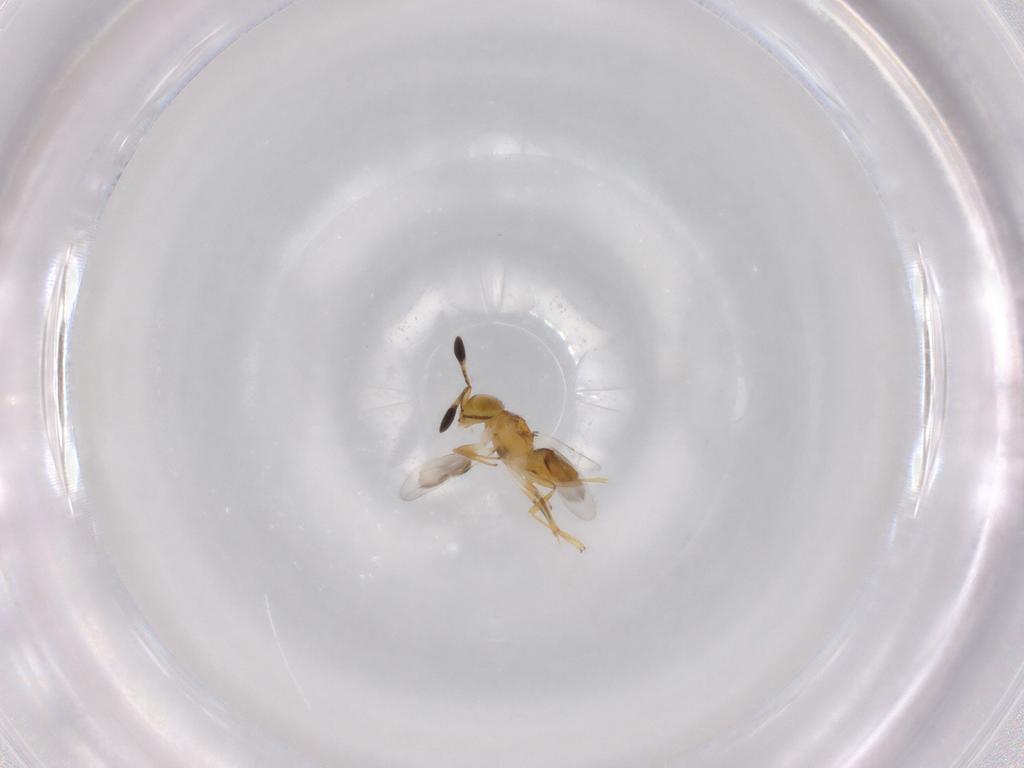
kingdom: Animalia
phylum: Arthropoda
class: Insecta
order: Hymenoptera
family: Encyrtidae
